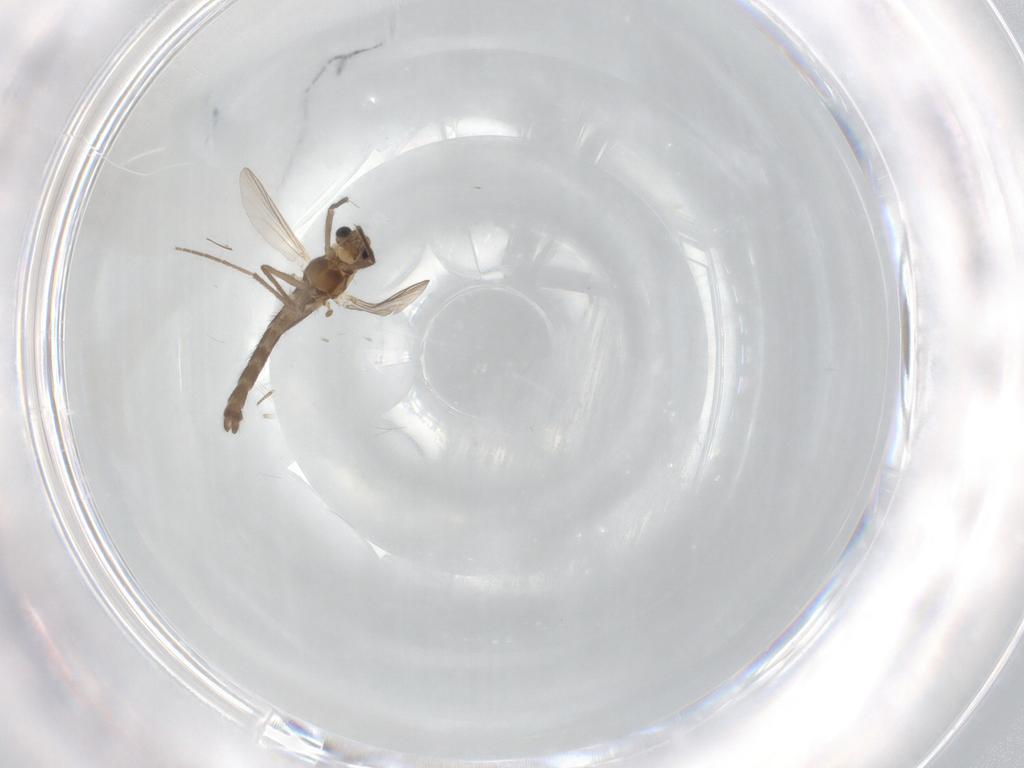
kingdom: Animalia
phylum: Arthropoda
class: Insecta
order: Diptera
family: Chironomidae
